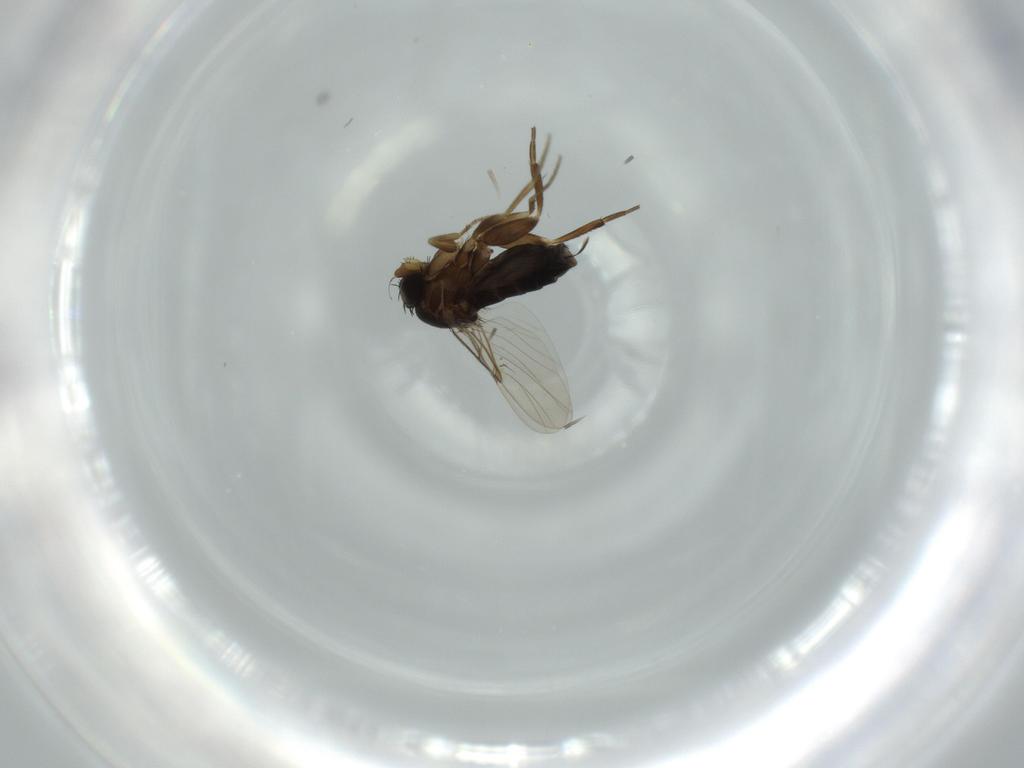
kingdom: Animalia
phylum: Arthropoda
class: Insecta
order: Diptera
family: Phoridae
